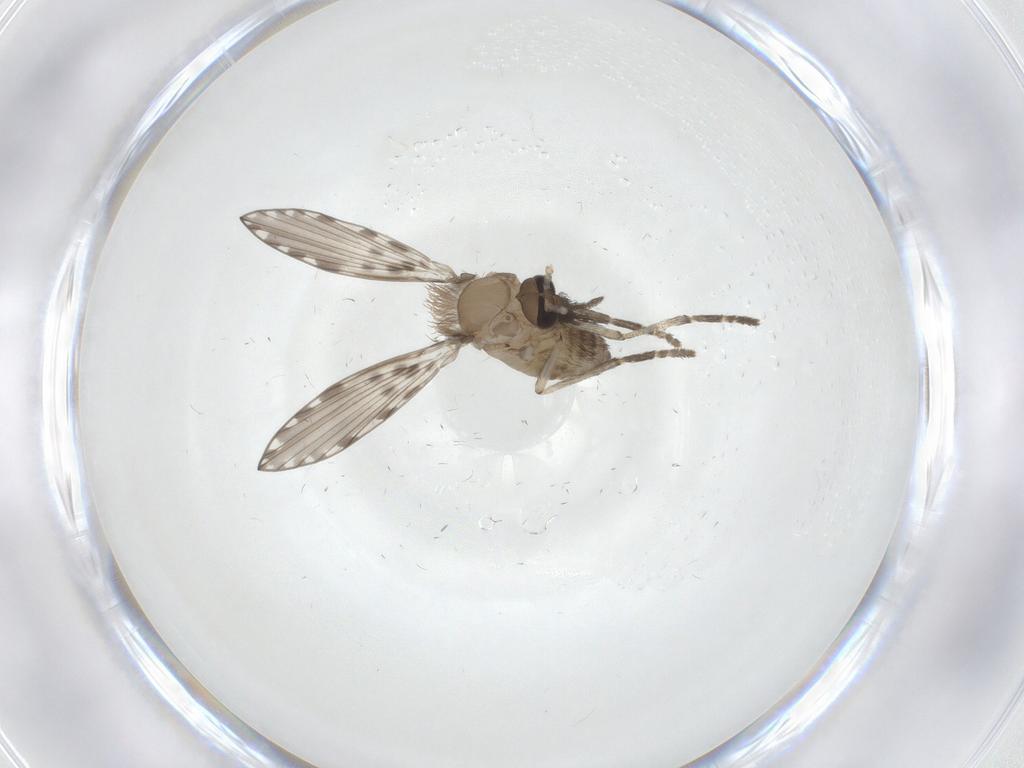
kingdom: Animalia
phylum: Arthropoda
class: Insecta
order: Diptera
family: Psychodidae
